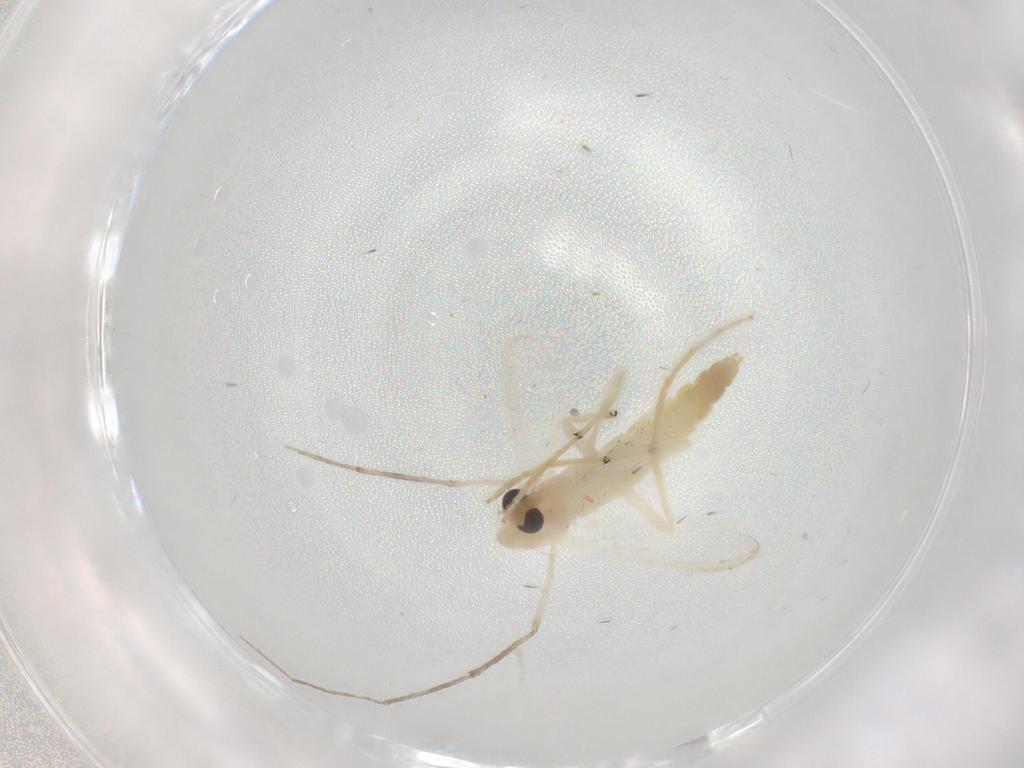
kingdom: Animalia
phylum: Arthropoda
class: Insecta
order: Diptera
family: Chironomidae
